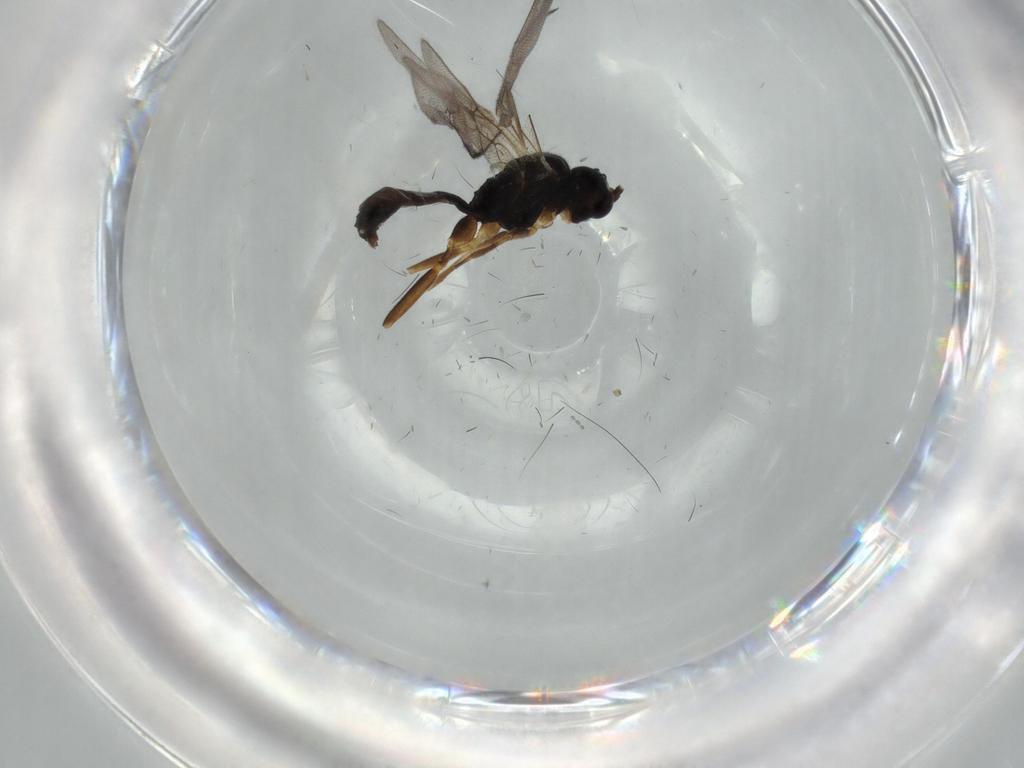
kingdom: Animalia
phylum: Arthropoda
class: Insecta
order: Hymenoptera
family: Ichneumonidae
